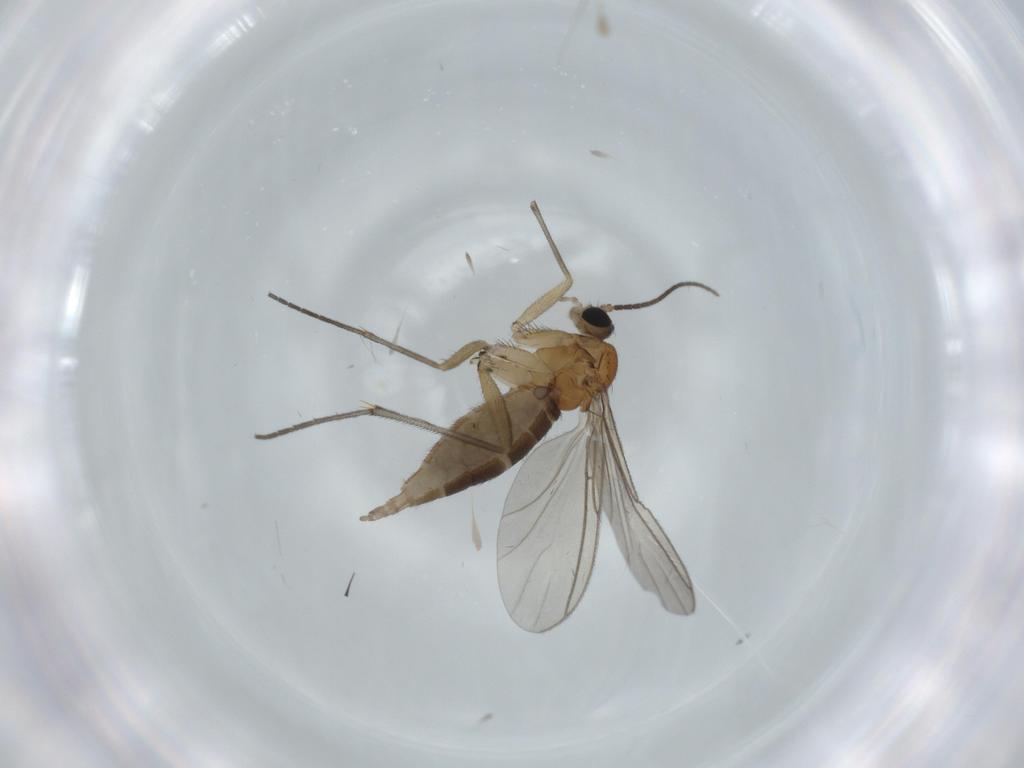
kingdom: Animalia
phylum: Arthropoda
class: Insecta
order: Diptera
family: Sciaridae
